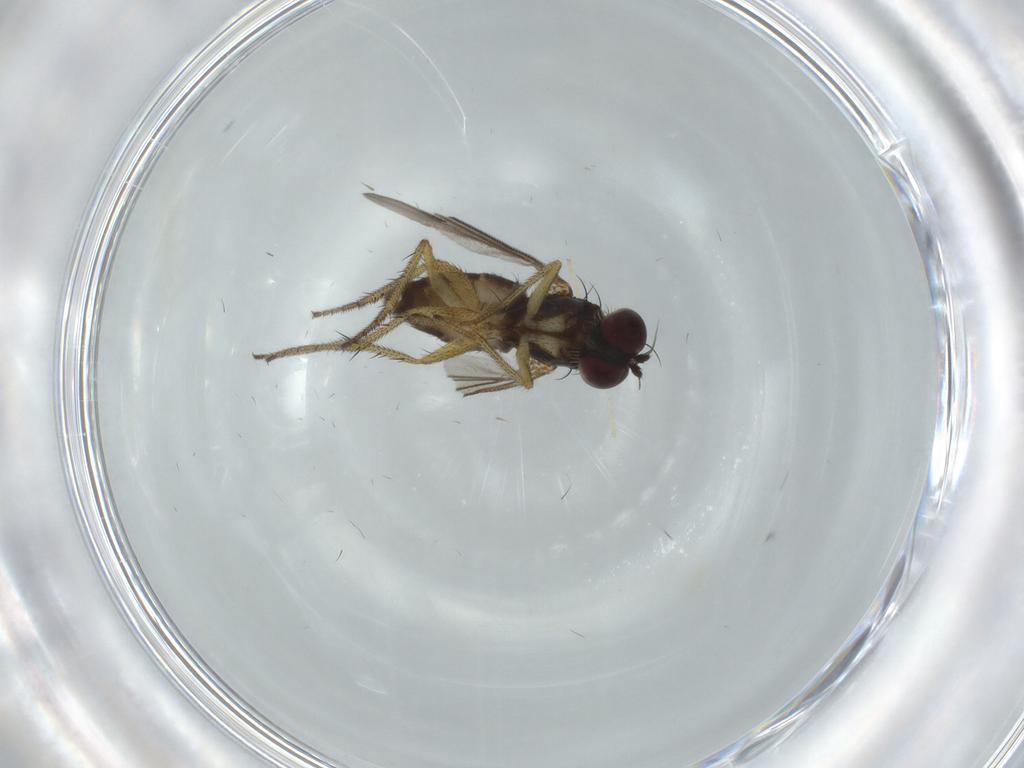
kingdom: Animalia
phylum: Arthropoda
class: Insecta
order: Diptera
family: Dolichopodidae
